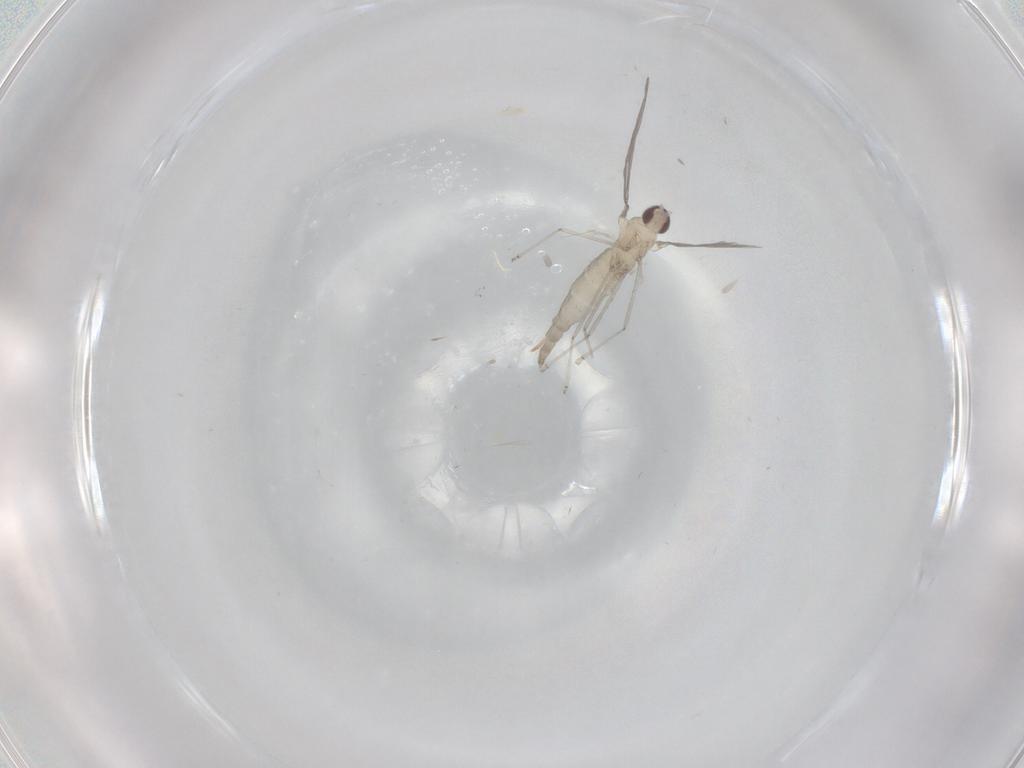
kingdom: Animalia
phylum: Arthropoda
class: Insecta
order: Diptera
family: Cecidomyiidae
